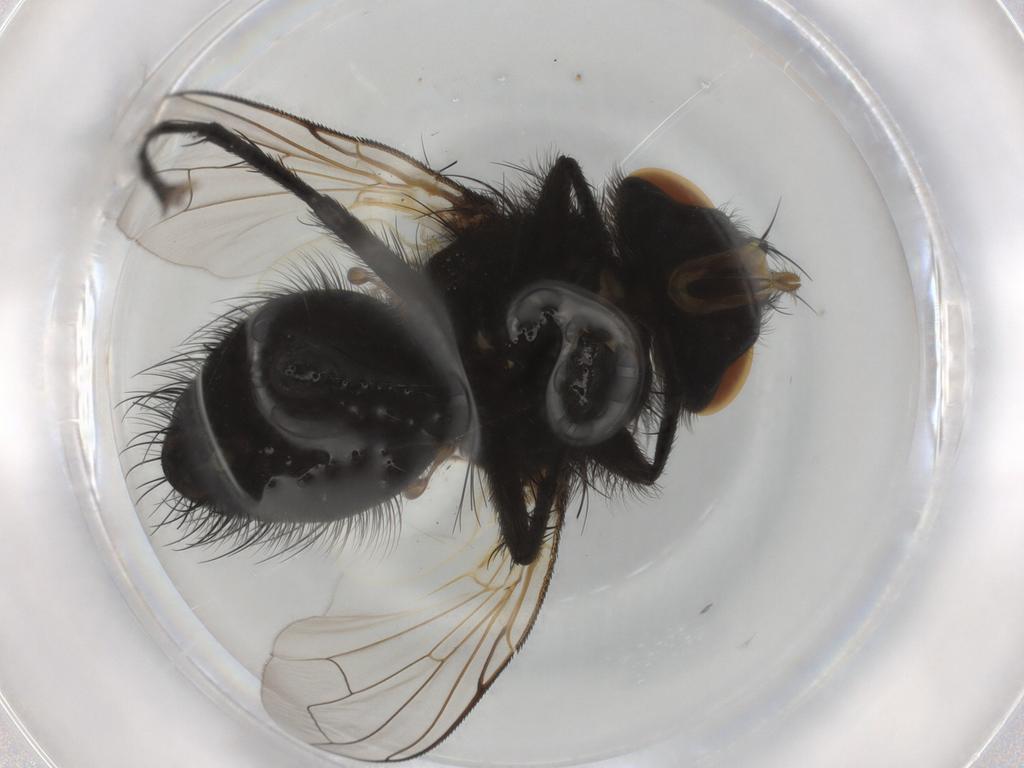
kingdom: Animalia
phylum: Arthropoda
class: Insecta
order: Diptera
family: Tachinidae
